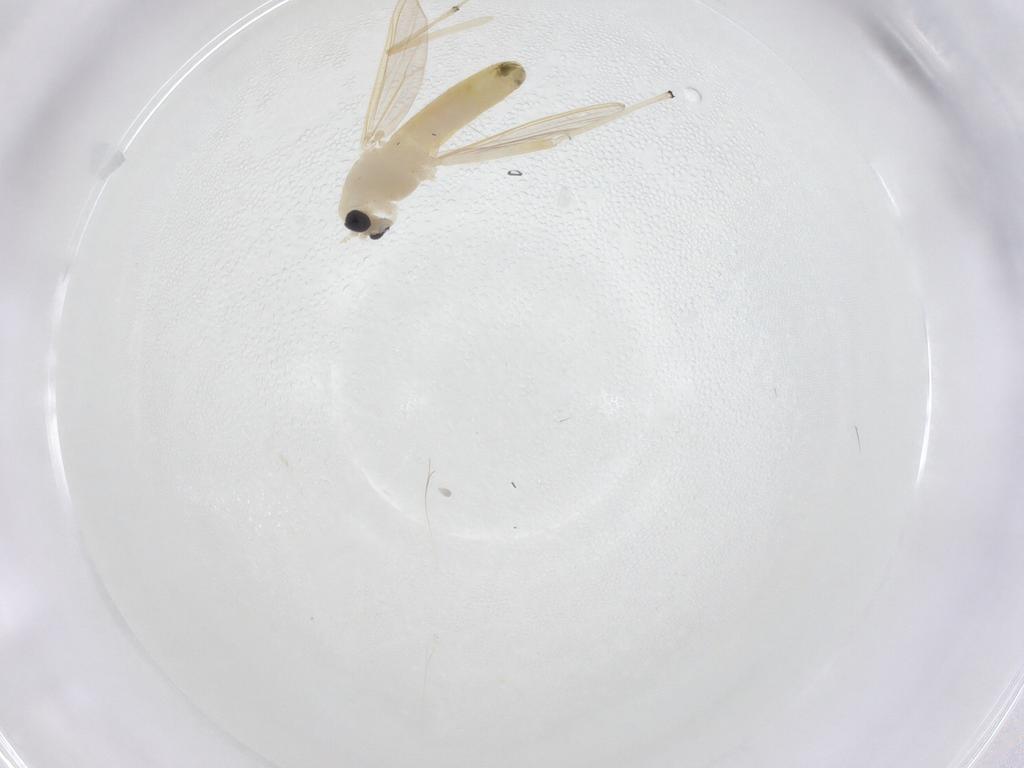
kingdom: Animalia
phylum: Arthropoda
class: Insecta
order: Diptera
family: Chironomidae
